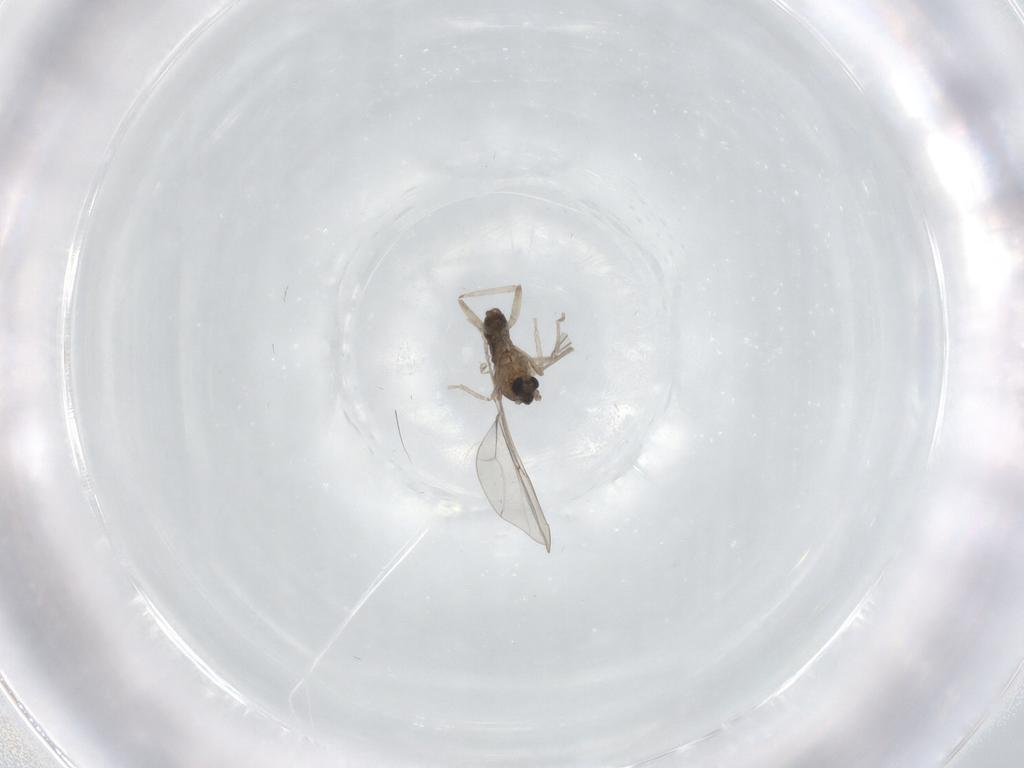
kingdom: Animalia
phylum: Arthropoda
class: Insecta
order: Diptera
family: Cecidomyiidae
